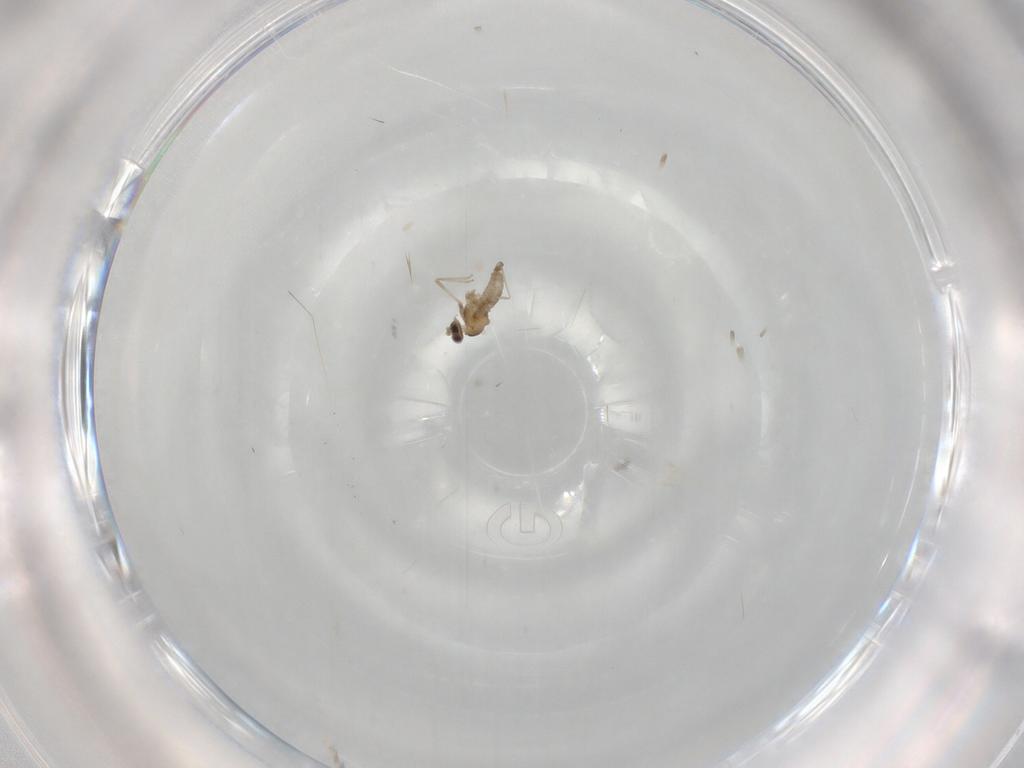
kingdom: Animalia
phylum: Arthropoda
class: Insecta
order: Diptera
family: Cecidomyiidae
